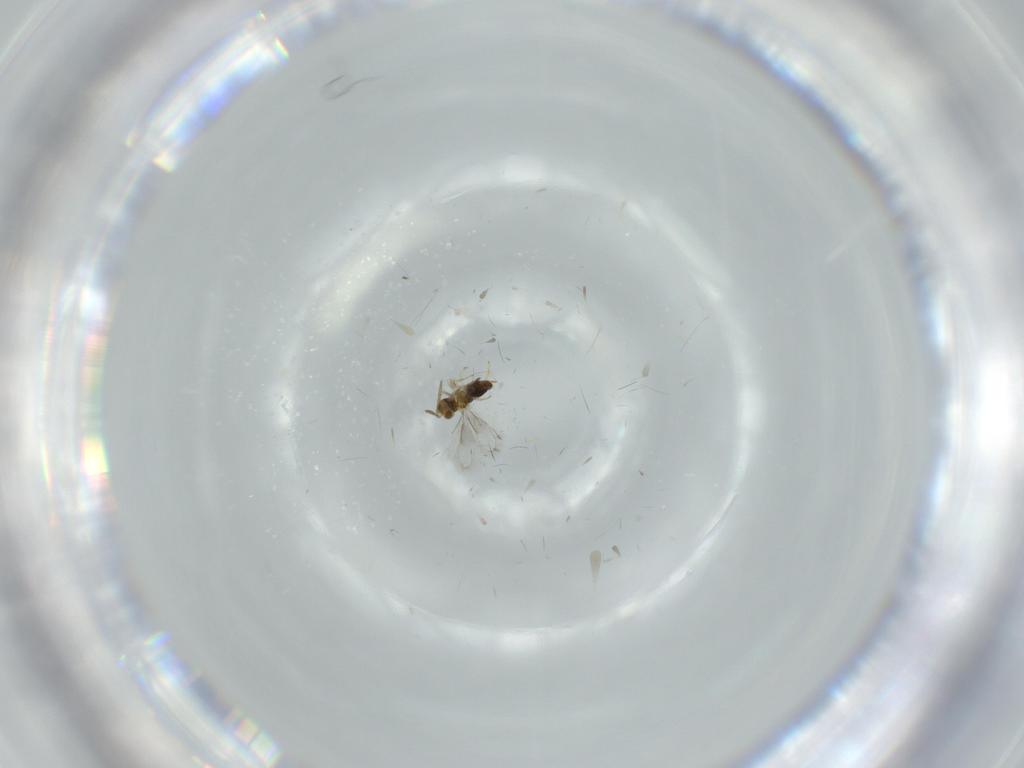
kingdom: Animalia
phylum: Arthropoda
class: Insecta
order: Hymenoptera
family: Aphelinidae
